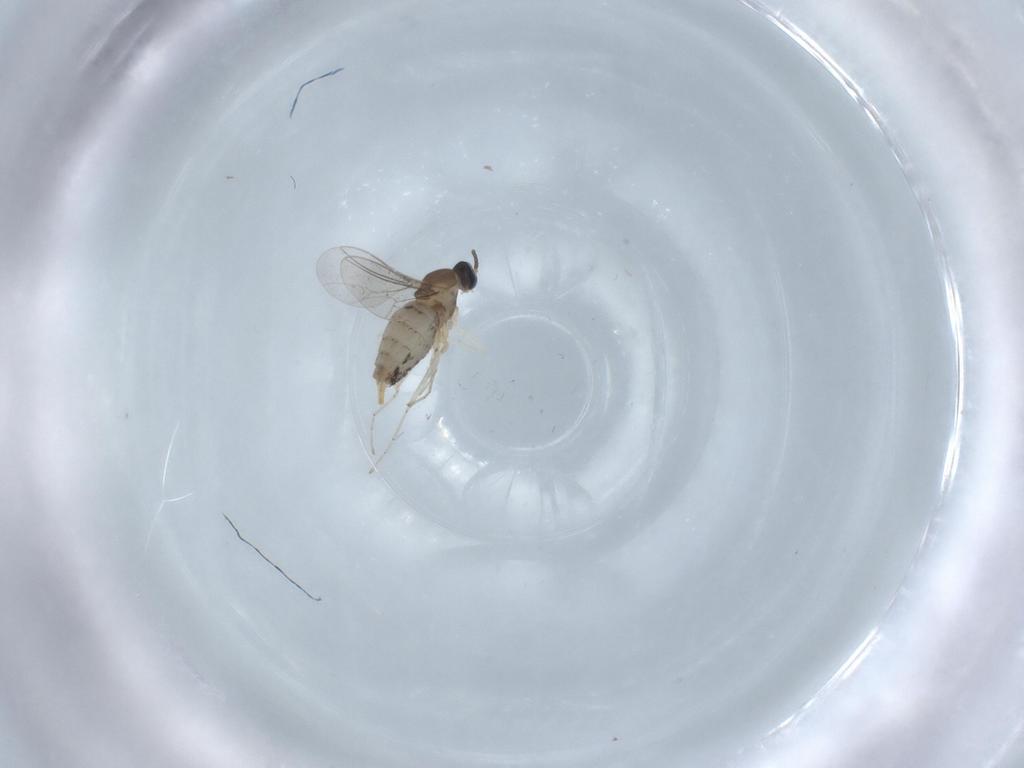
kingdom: Animalia
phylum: Arthropoda
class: Insecta
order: Diptera
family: Cecidomyiidae
